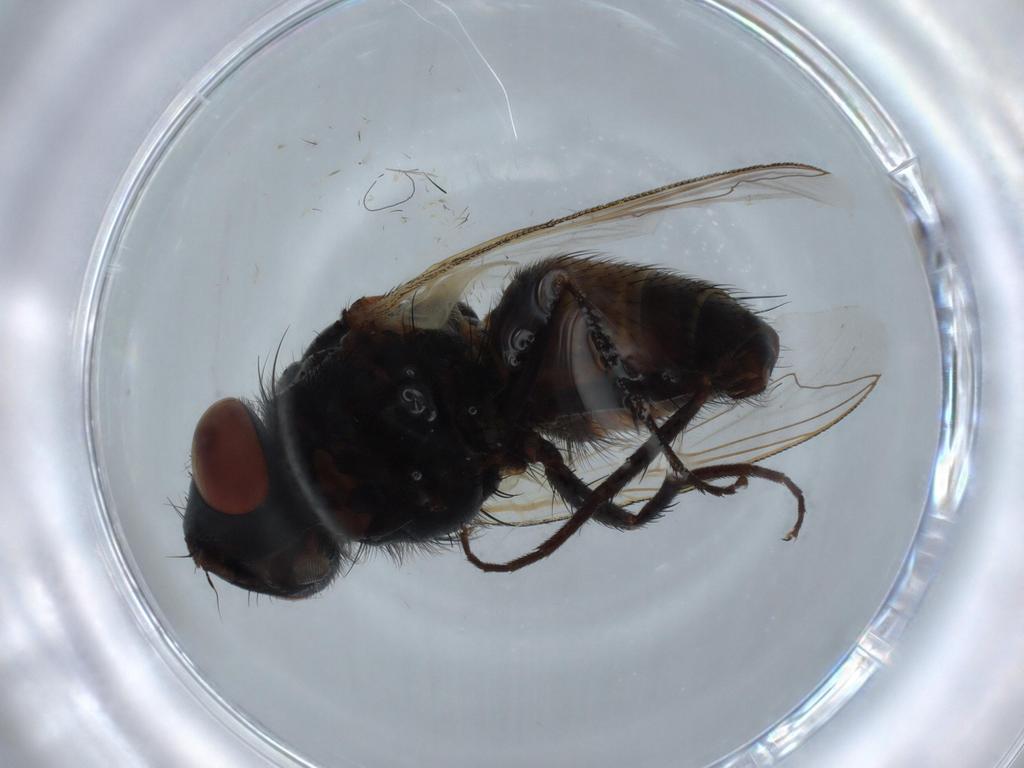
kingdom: Animalia
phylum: Arthropoda
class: Insecta
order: Diptera
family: Sarcophagidae
